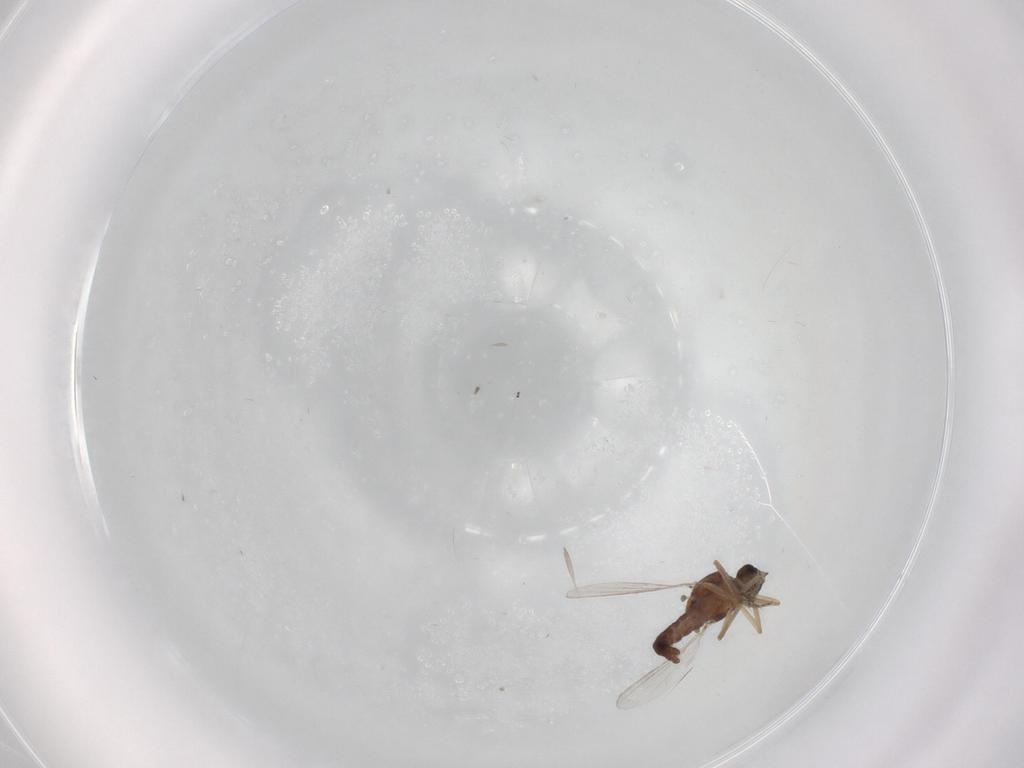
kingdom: Animalia
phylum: Arthropoda
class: Insecta
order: Diptera
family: Ceratopogonidae
